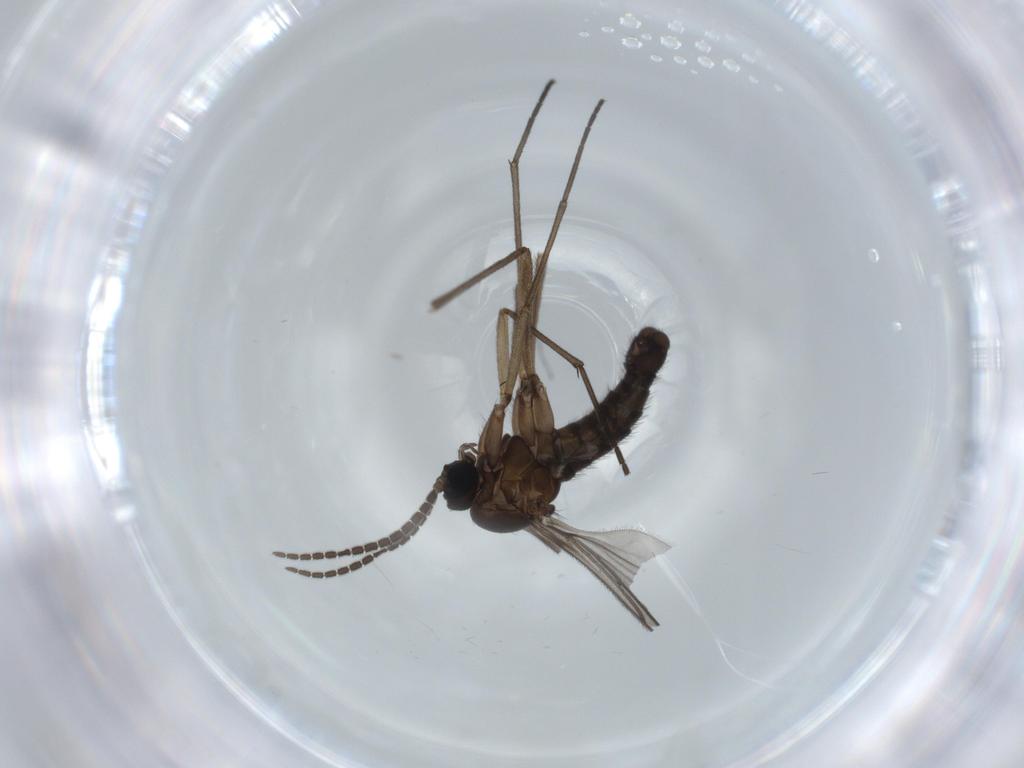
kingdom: Animalia
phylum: Arthropoda
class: Insecta
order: Diptera
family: Sciaridae
